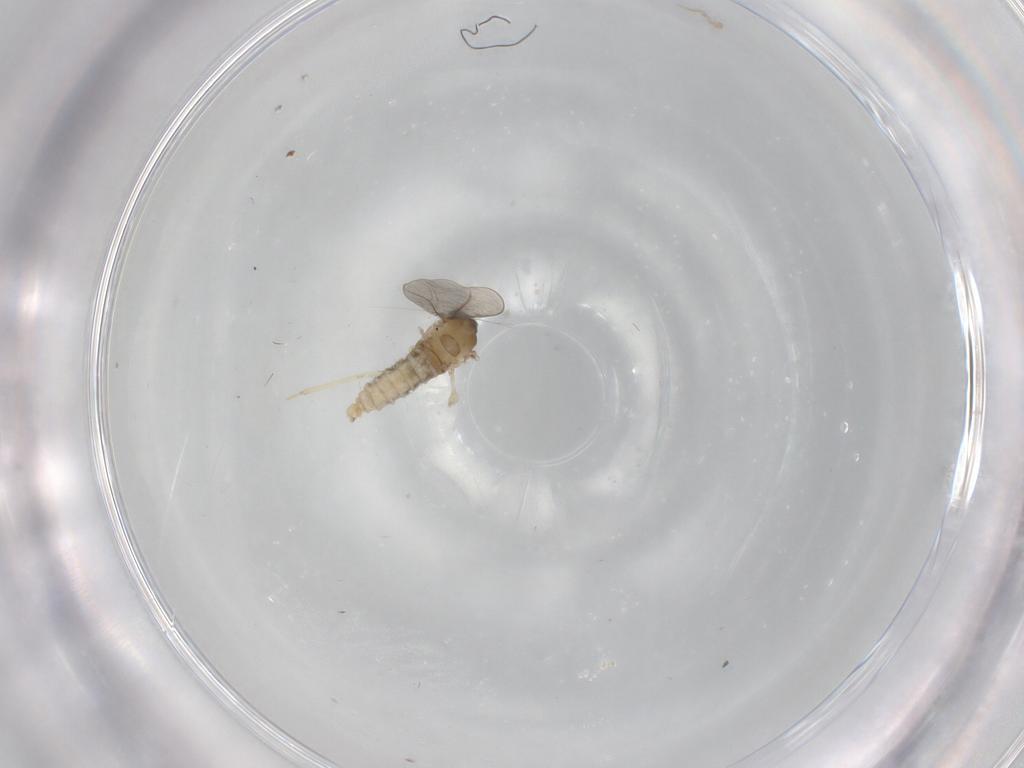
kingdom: Animalia
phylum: Arthropoda
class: Insecta
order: Diptera
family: Cecidomyiidae
